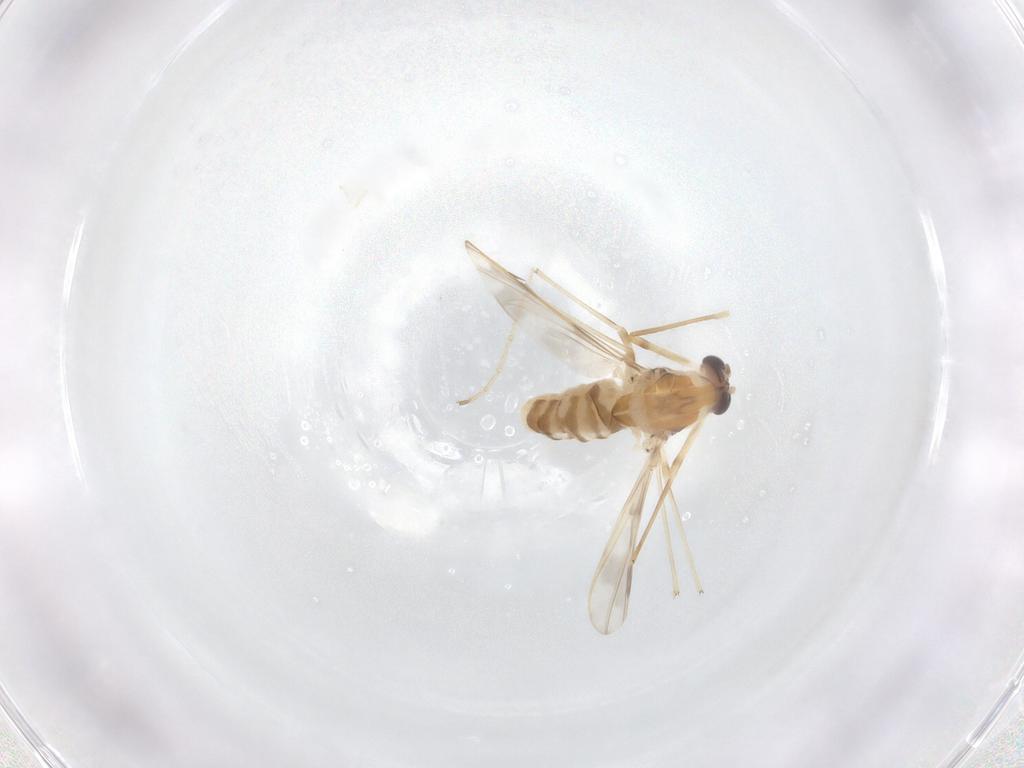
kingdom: Animalia
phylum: Arthropoda
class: Insecta
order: Diptera
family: Chironomidae
